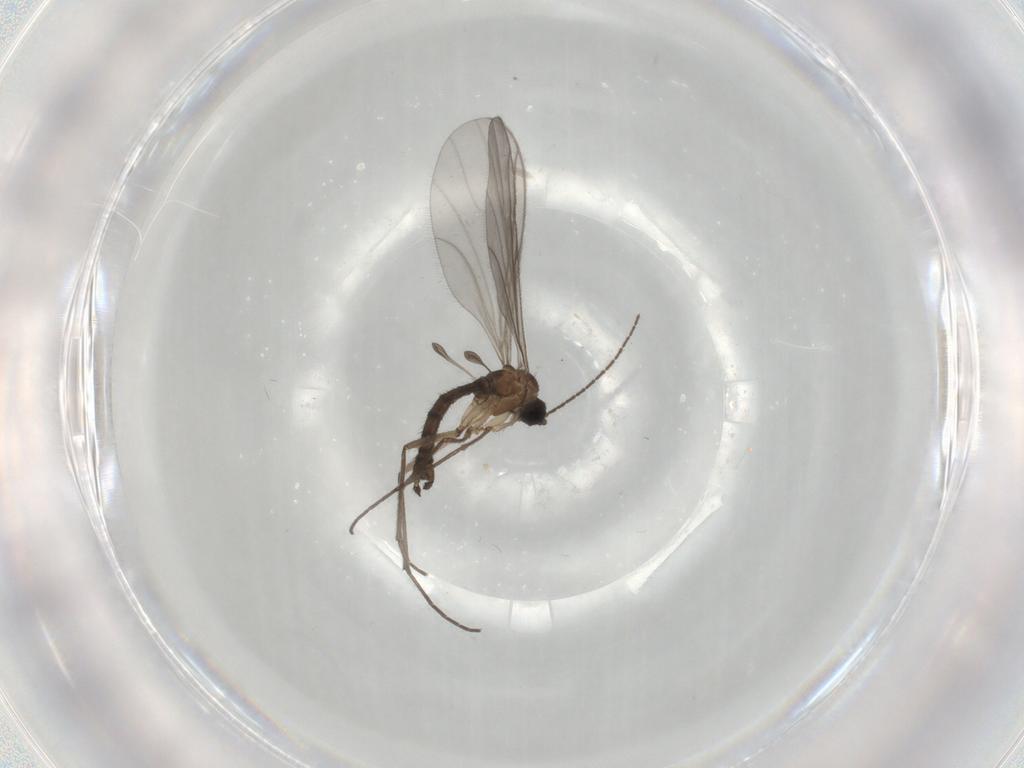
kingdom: Animalia
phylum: Arthropoda
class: Insecta
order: Diptera
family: Sciaridae
